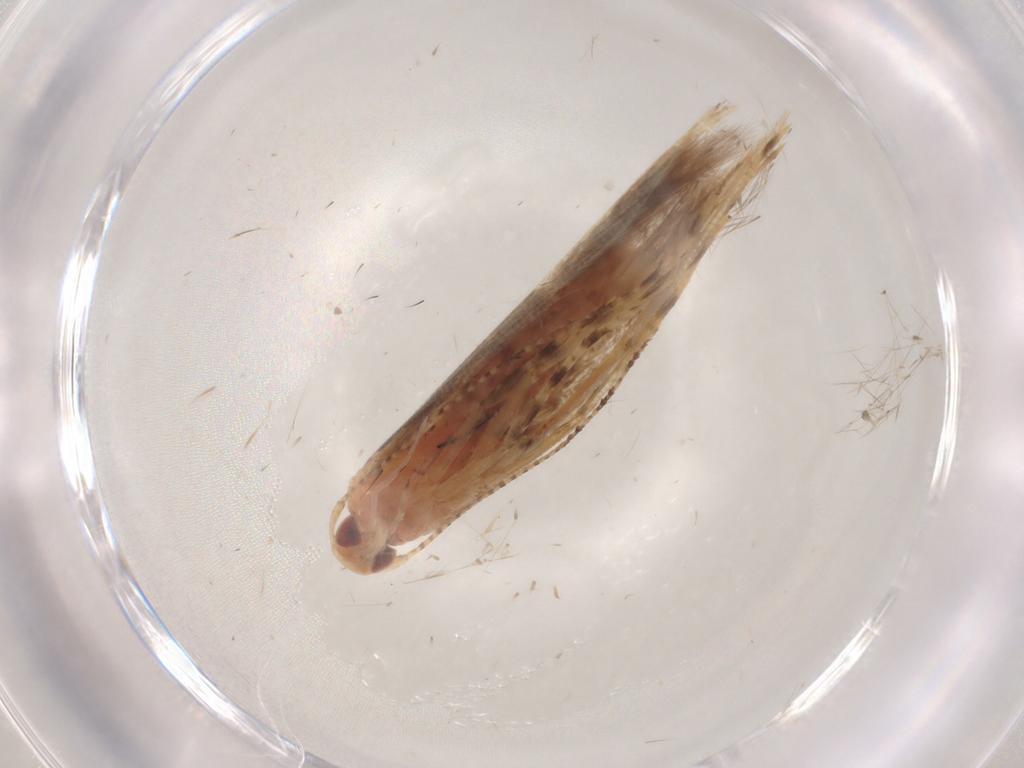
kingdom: Animalia
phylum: Arthropoda
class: Insecta
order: Lepidoptera
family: Cosmopterigidae
